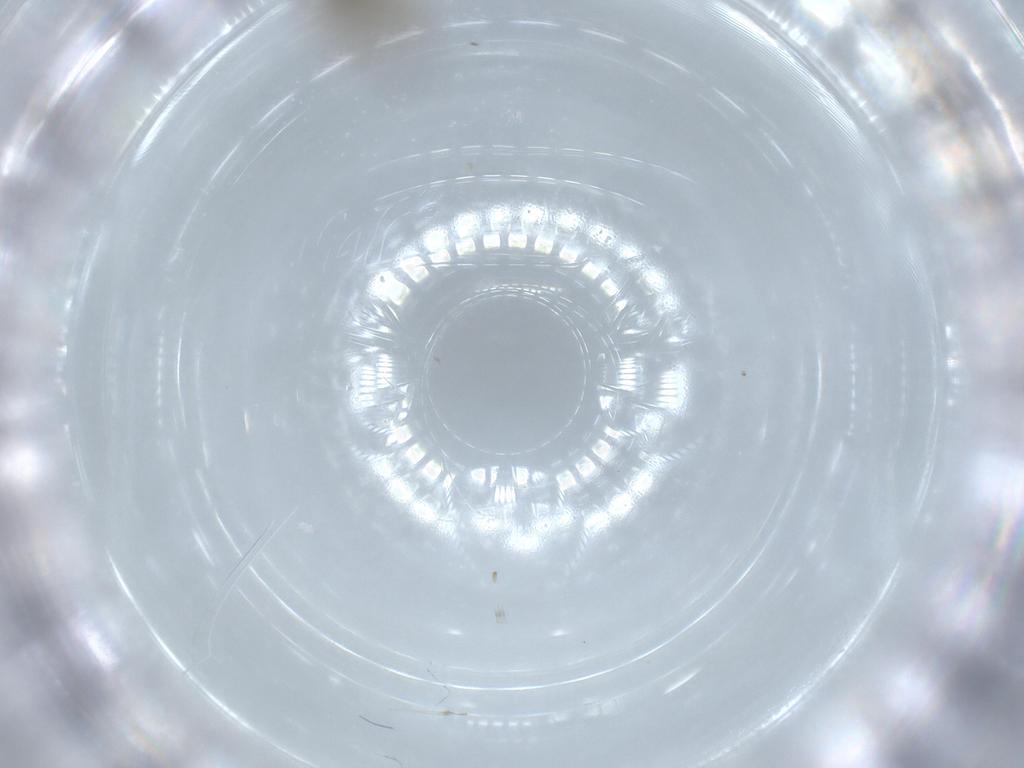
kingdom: Animalia
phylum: Arthropoda
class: Insecta
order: Diptera
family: Ceratopogonidae
